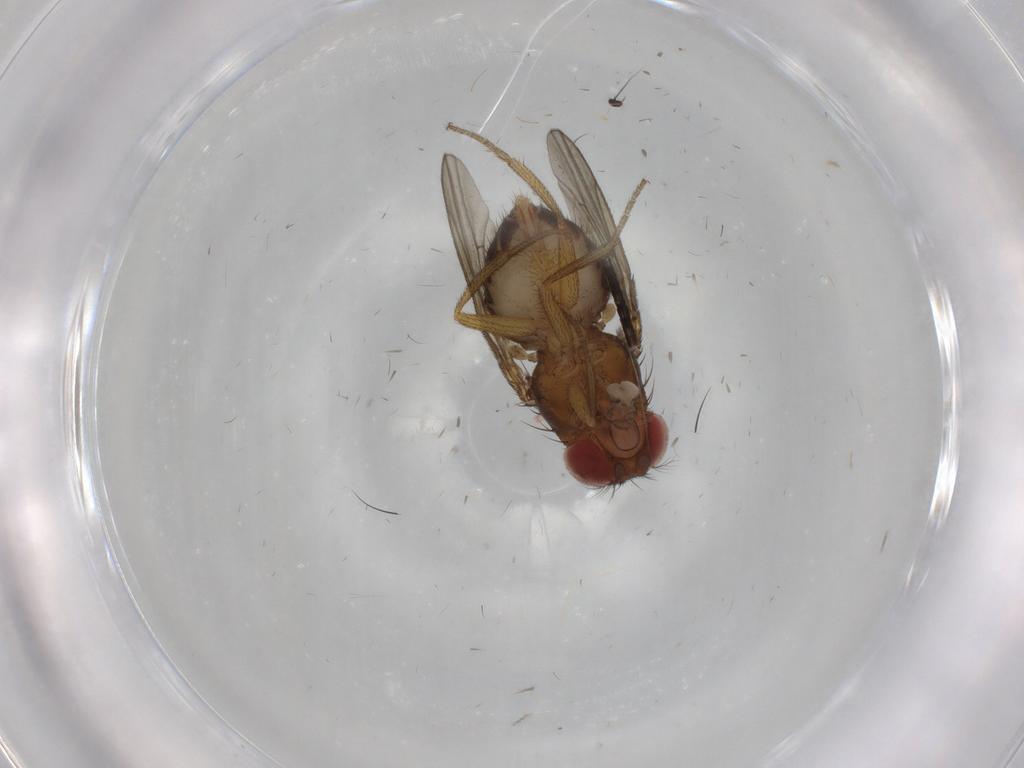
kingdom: Animalia
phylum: Arthropoda
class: Insecta
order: Diptera
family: Drosophilidae
